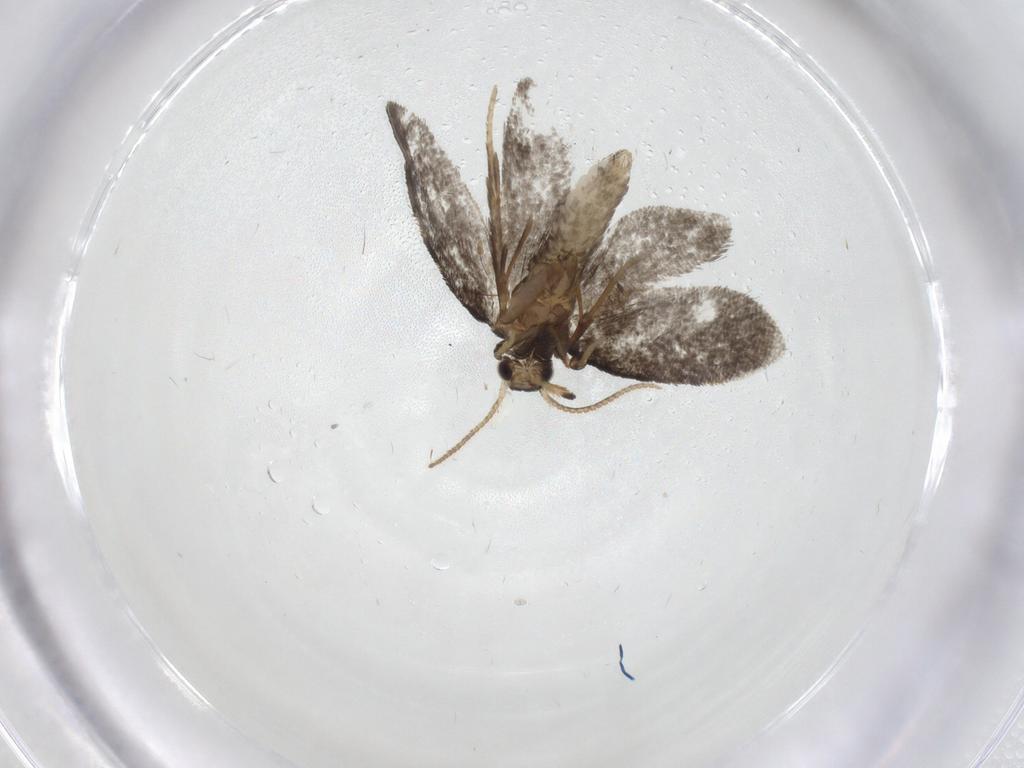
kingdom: Animalia
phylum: Arthropoda
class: Insecta
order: Lepidoptera
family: Psychidae
